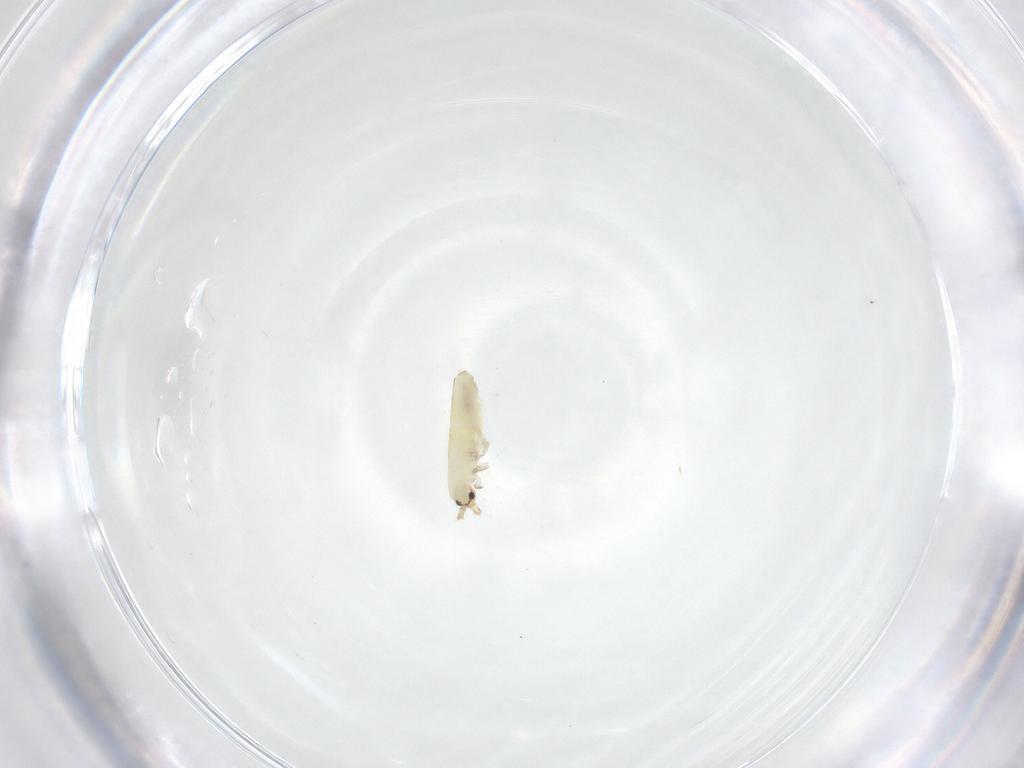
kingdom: Animalia
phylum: Arthropoda
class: Collembola
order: Entomobryomorpha
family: Entomobryidae
